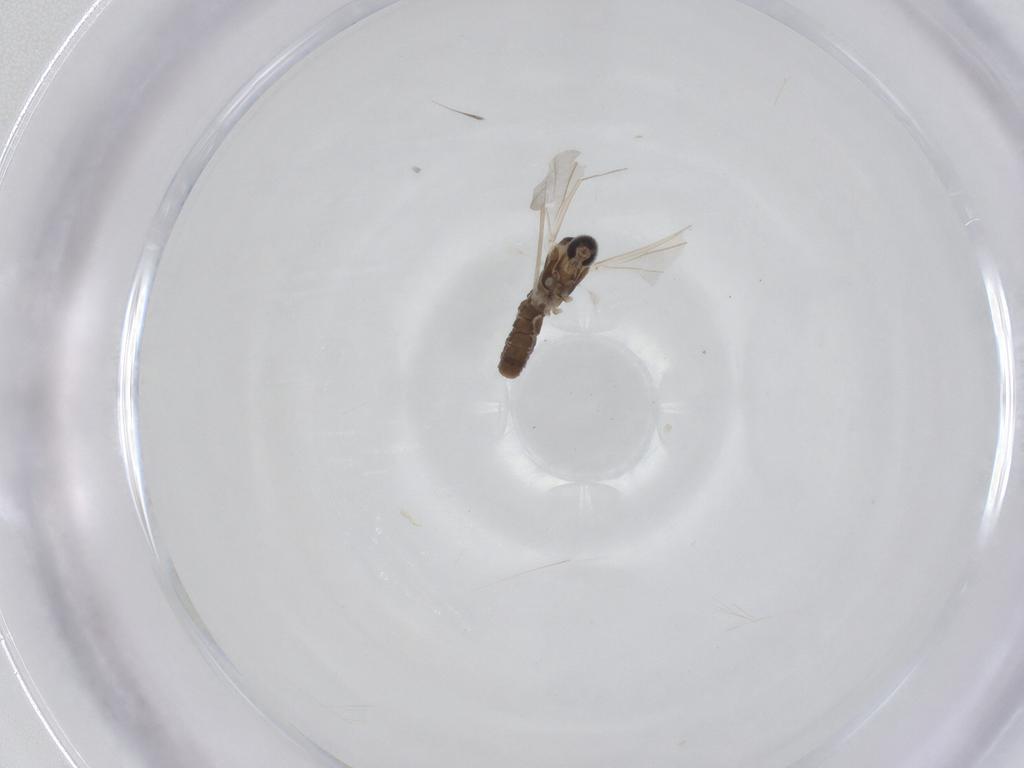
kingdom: Animalia
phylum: Arthropoda
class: Insecta
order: Diptera
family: Cecidomyiidae
